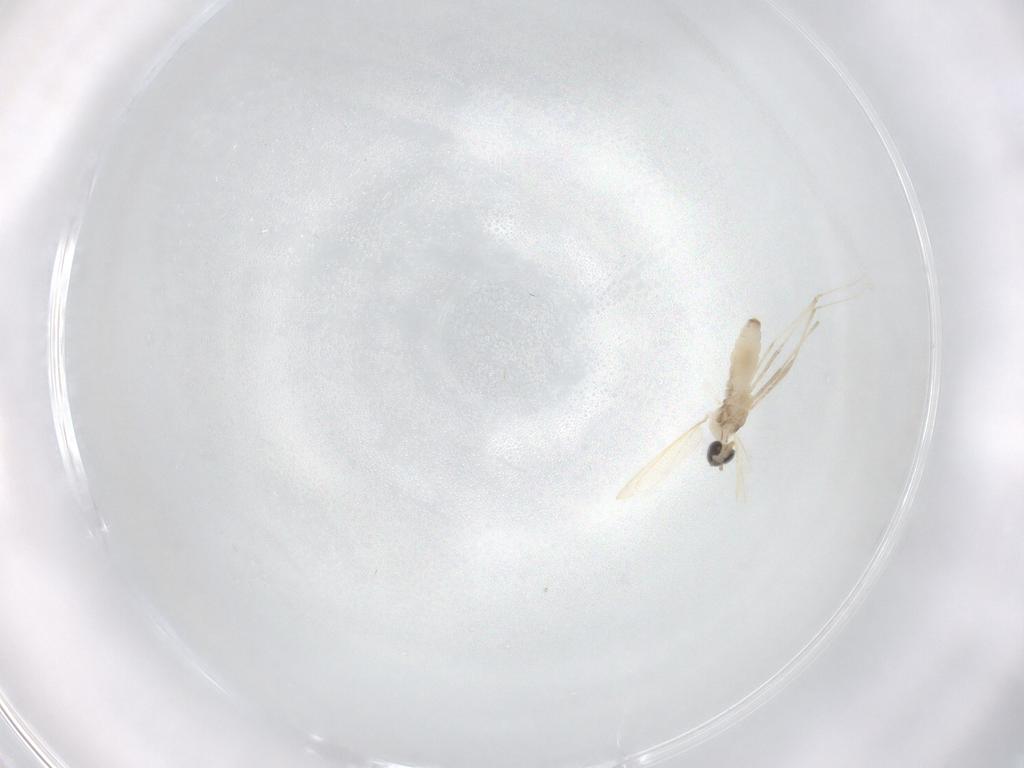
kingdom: Animalia
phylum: Arthropoda
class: Insecta
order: Diptera
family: Cecidomyiidae
